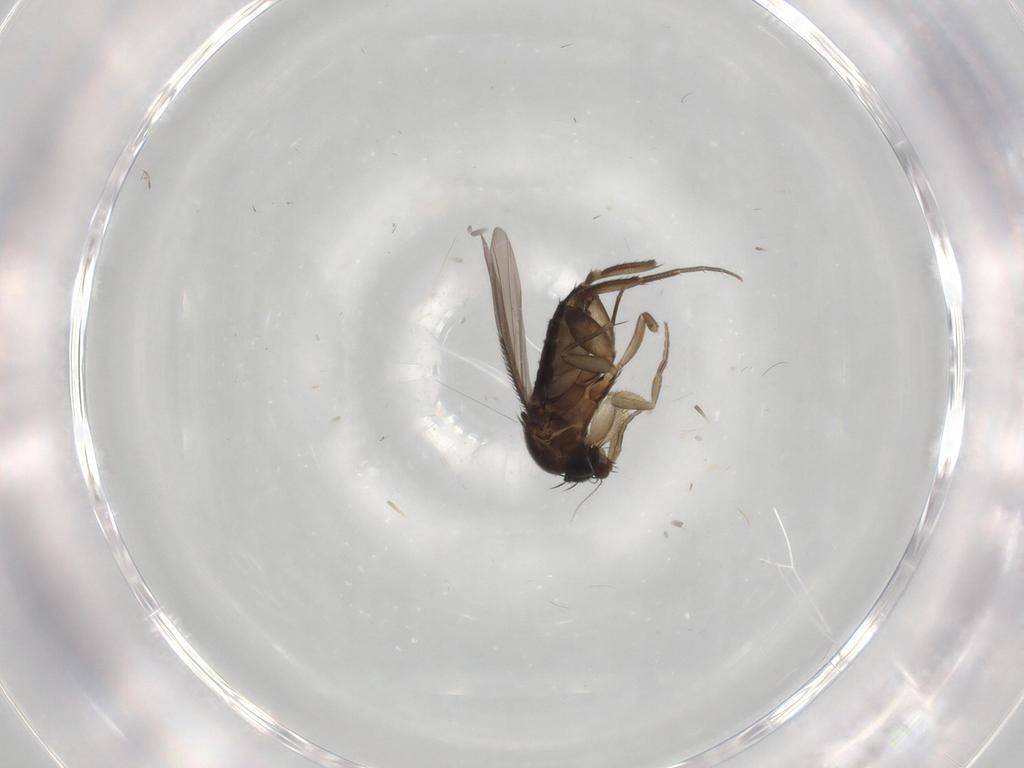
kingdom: Animalia
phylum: Arthropoda
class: Insecta
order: Diptera
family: Phoridae
